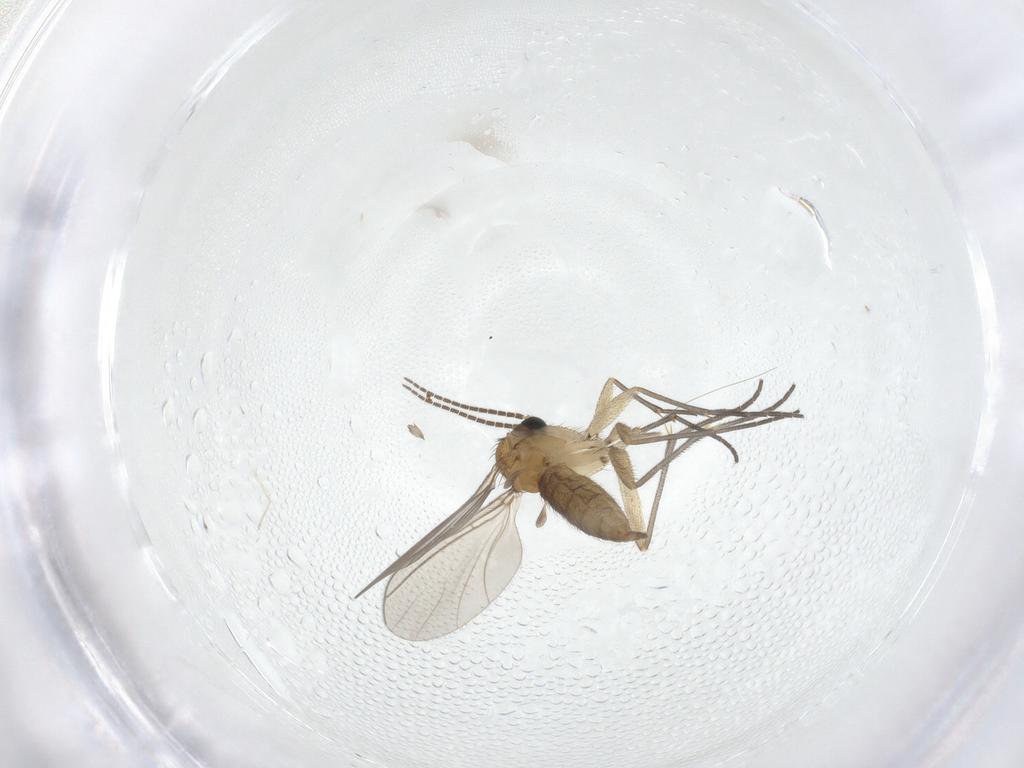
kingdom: Animalia
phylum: Arthropoda
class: Insecta
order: Diptera
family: Sciaridae
